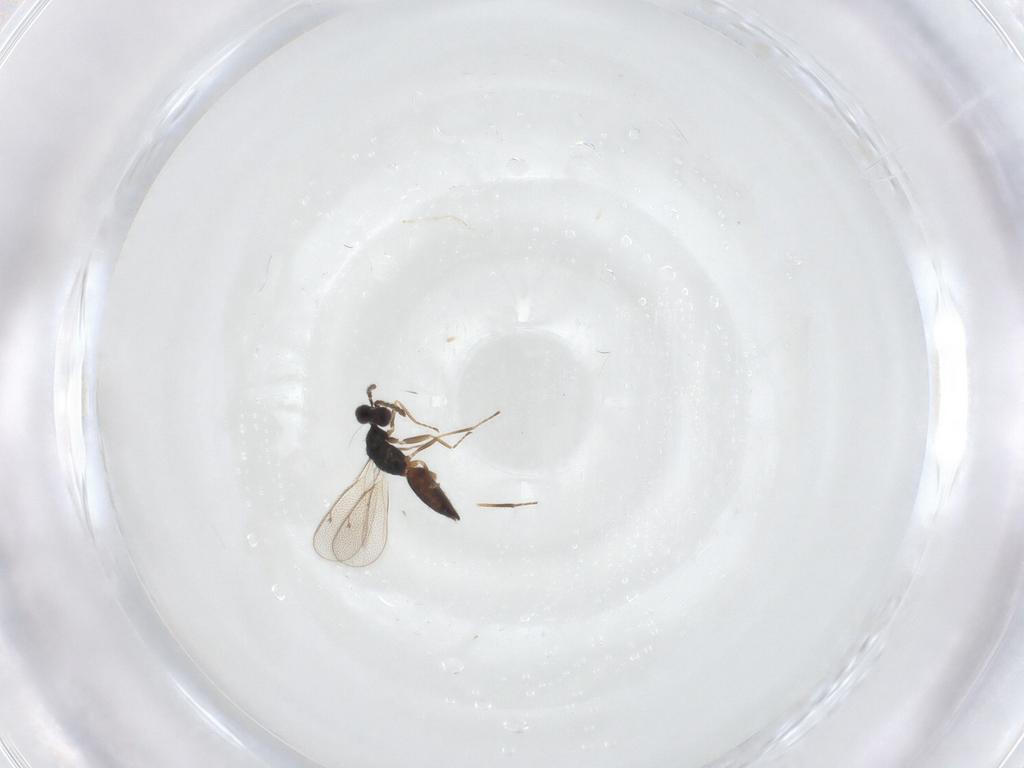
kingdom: Animalia
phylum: Arthropoda
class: Insecta
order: Hymenoptera
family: Eulophidae
